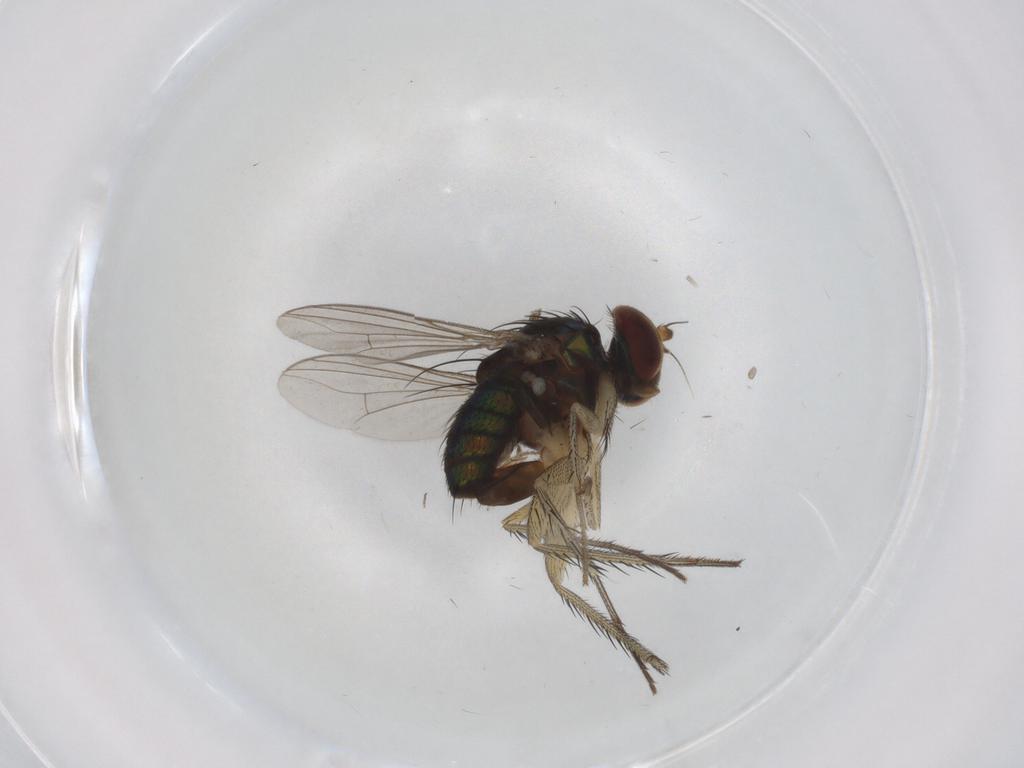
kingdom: Animalia
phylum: Arthropoda
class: Insecta
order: Diptera
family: Dolichopodidae
